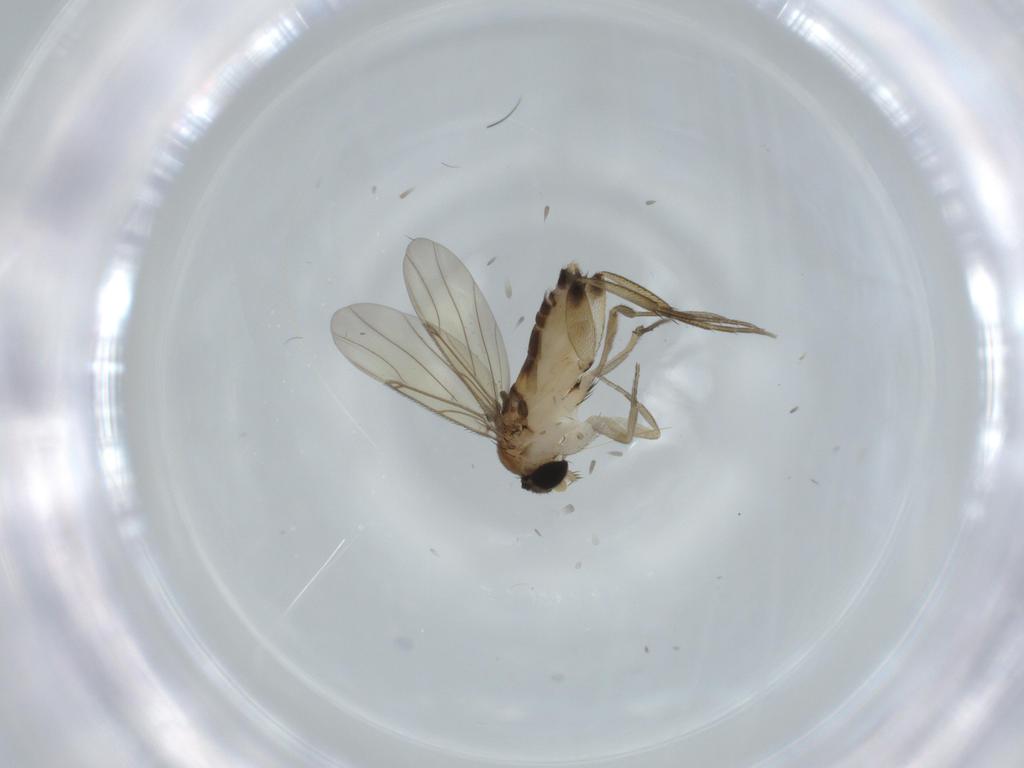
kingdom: Animalia
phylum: Arthropoda
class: Insecta
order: Diptera
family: Phoridae
